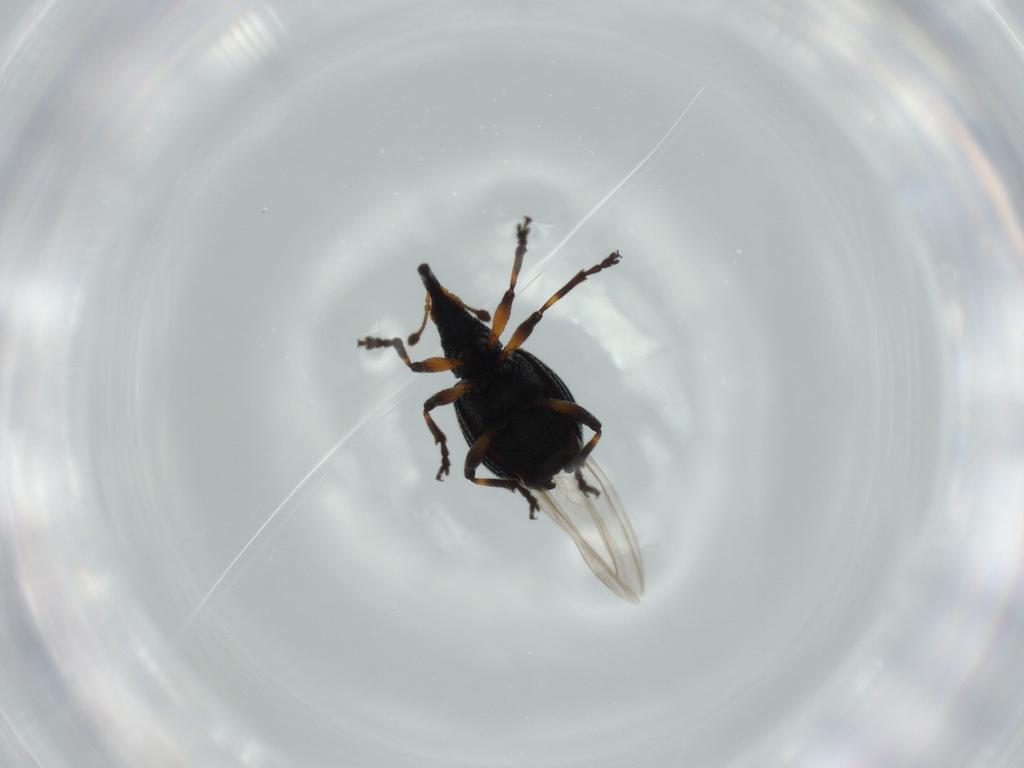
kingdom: Animalia
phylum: Arthropoda
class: Insecta
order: Coleoptera
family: Brentidae
